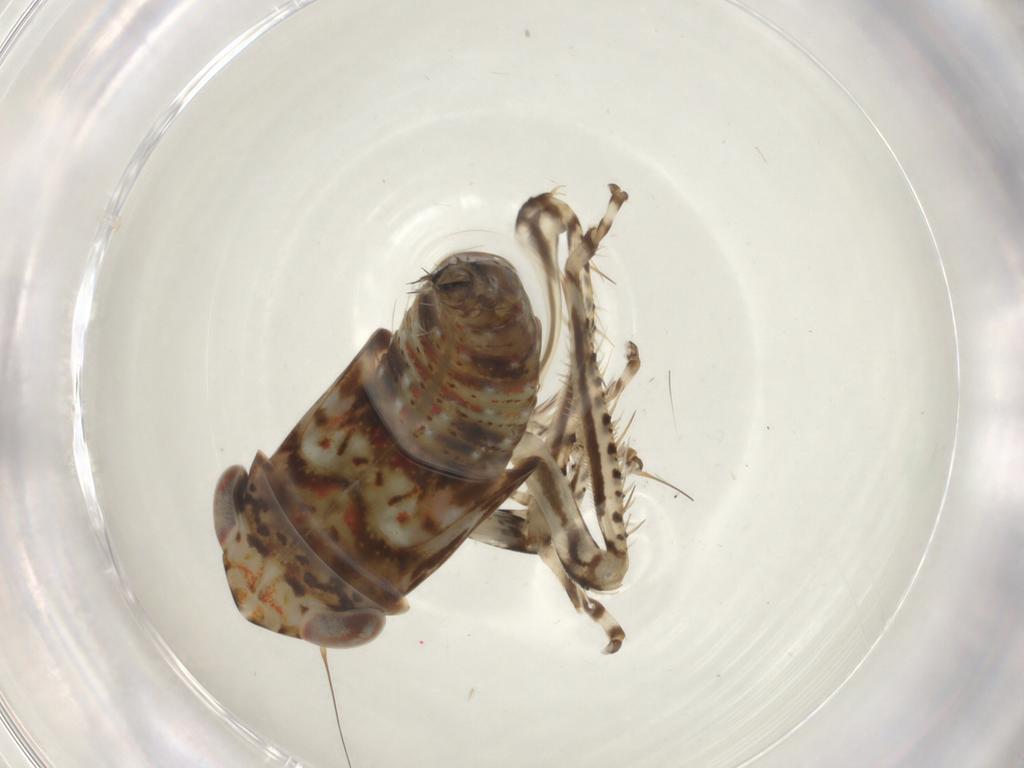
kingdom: Animalia
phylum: Arthropoda
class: Insecta
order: Hemiptera
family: Cicadellidae
